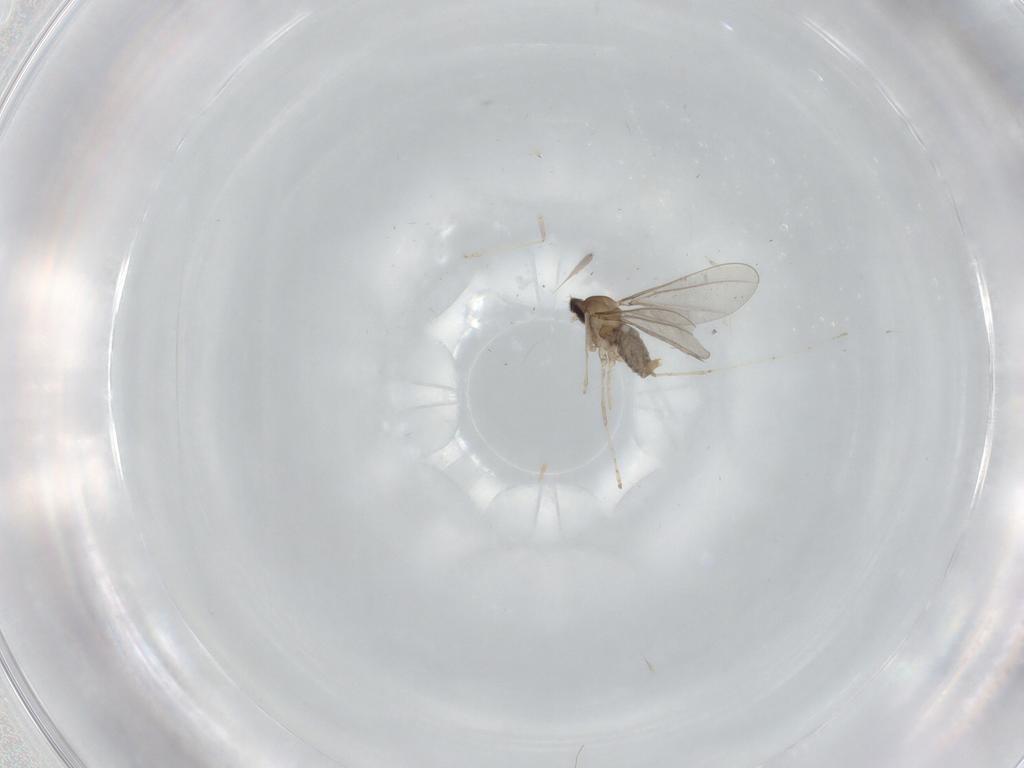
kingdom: Animalia
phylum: Arthropoda
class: Insecta
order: Diptera
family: Cecidomyiidae
